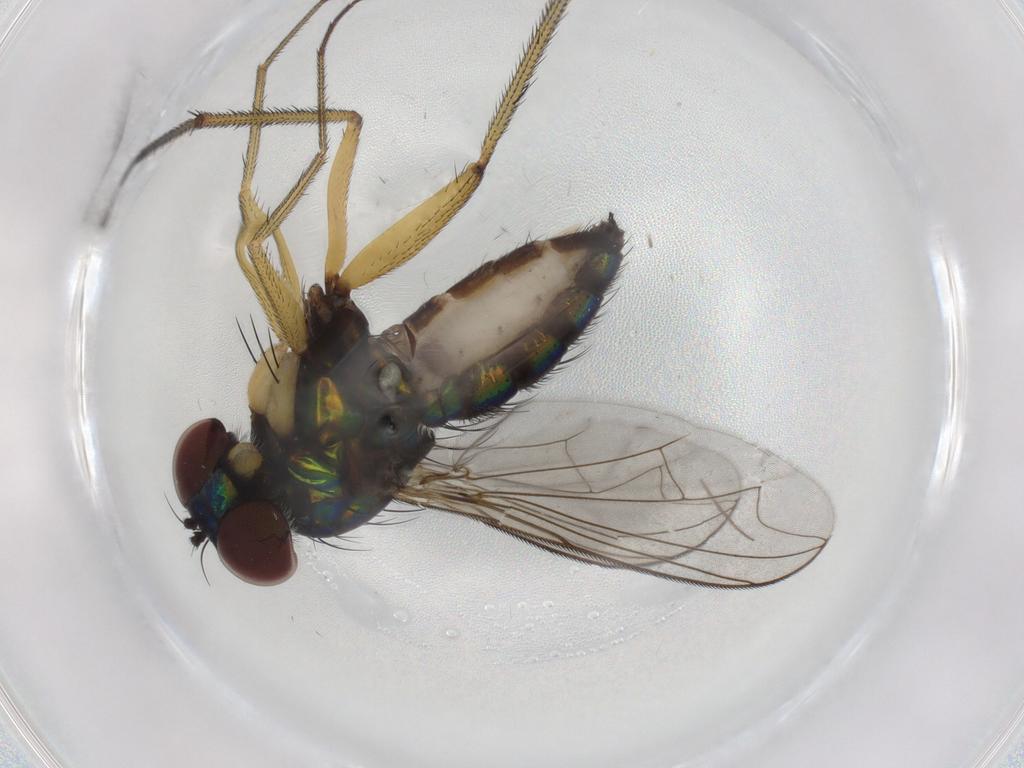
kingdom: Animalia
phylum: Arthropoda
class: Insecta
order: Diptera
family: Dolichopodidae
